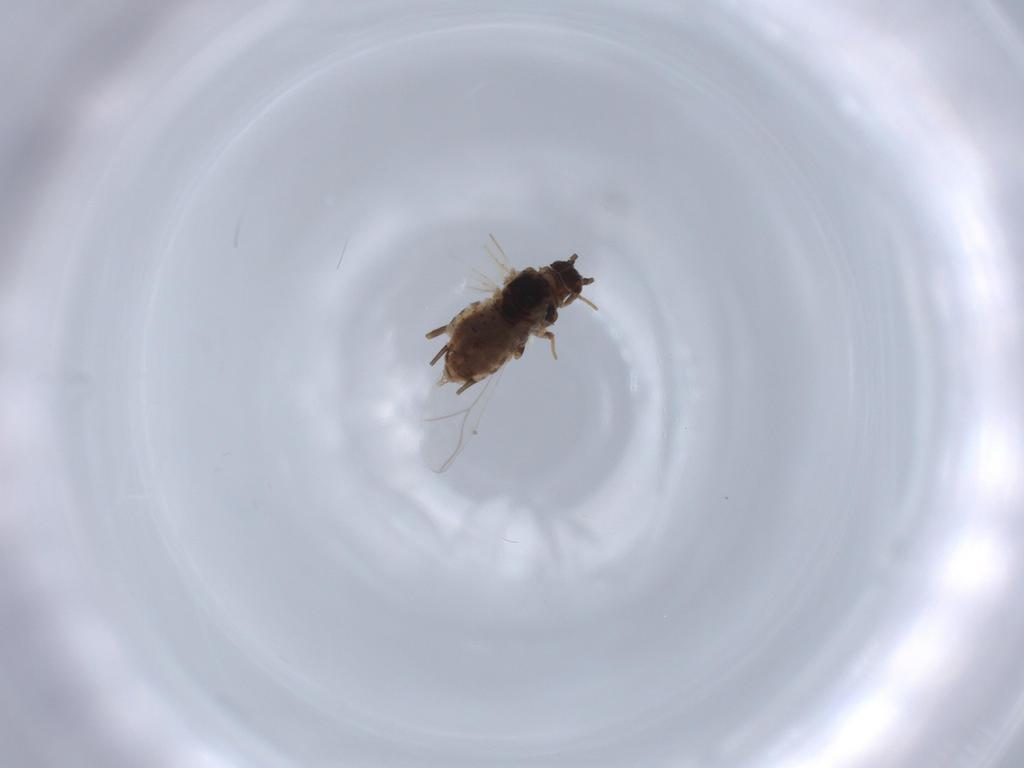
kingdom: Animalia
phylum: Arthropoda
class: Insecta
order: Hemiptera
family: Aphididae
